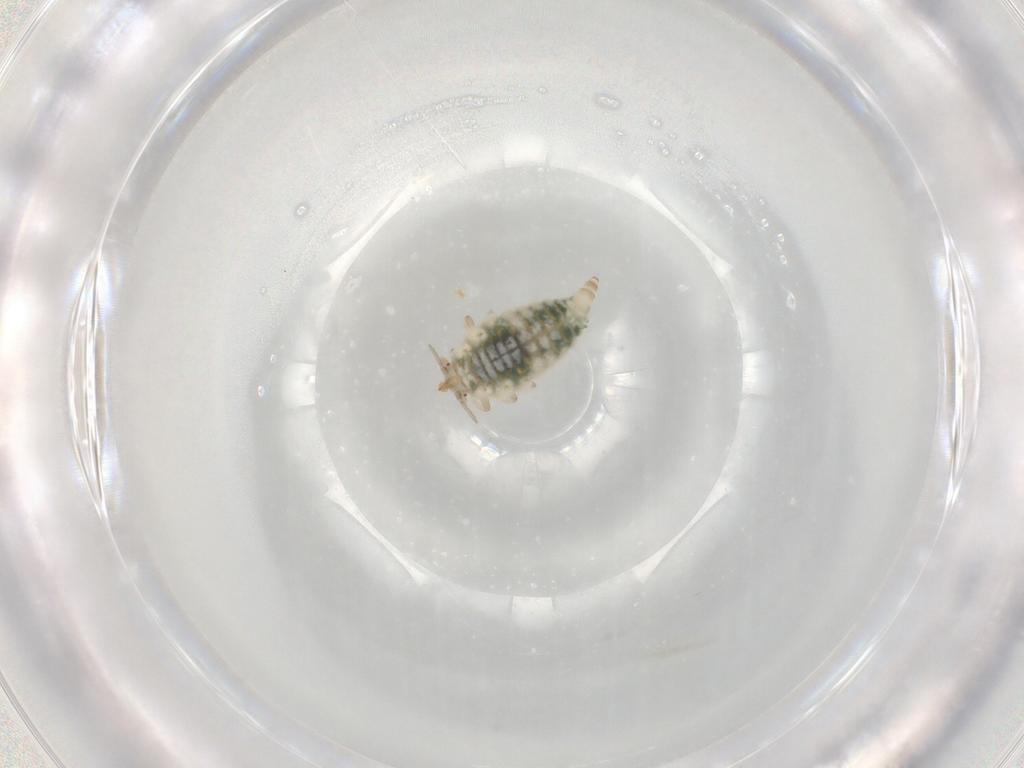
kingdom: Animalia
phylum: Arthropoda
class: Insecta
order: Neuroptera
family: Coniopterygidae
